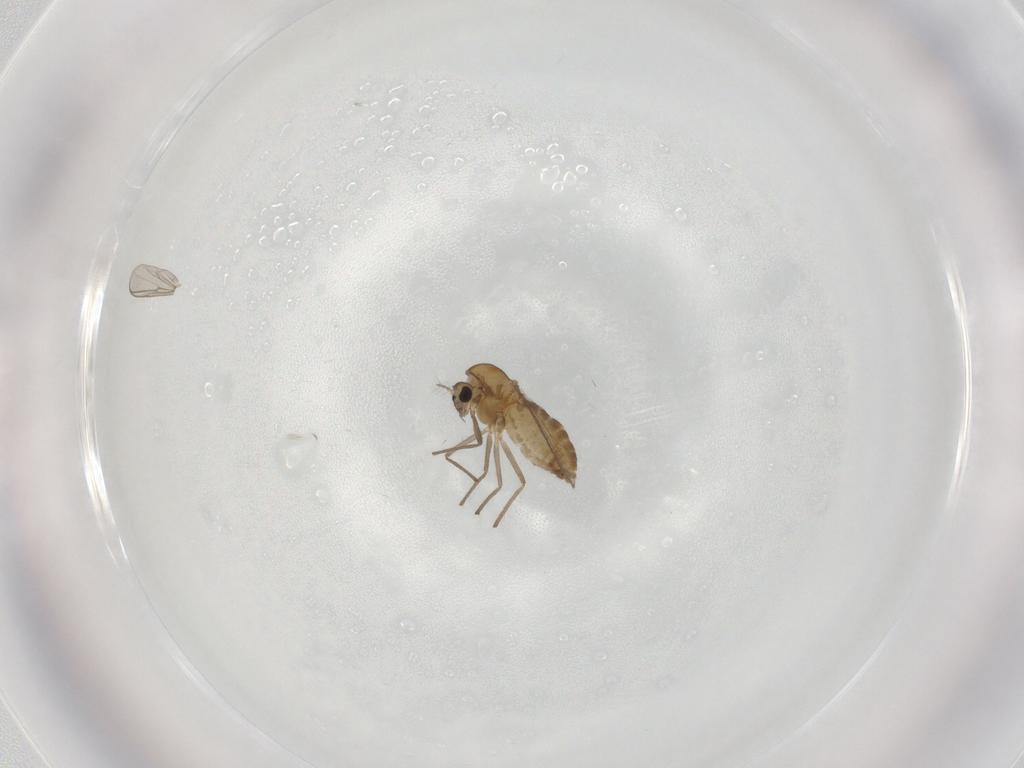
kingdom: Animalia
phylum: Arthropoda
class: Insecta
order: Diptera
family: Chironomidae
